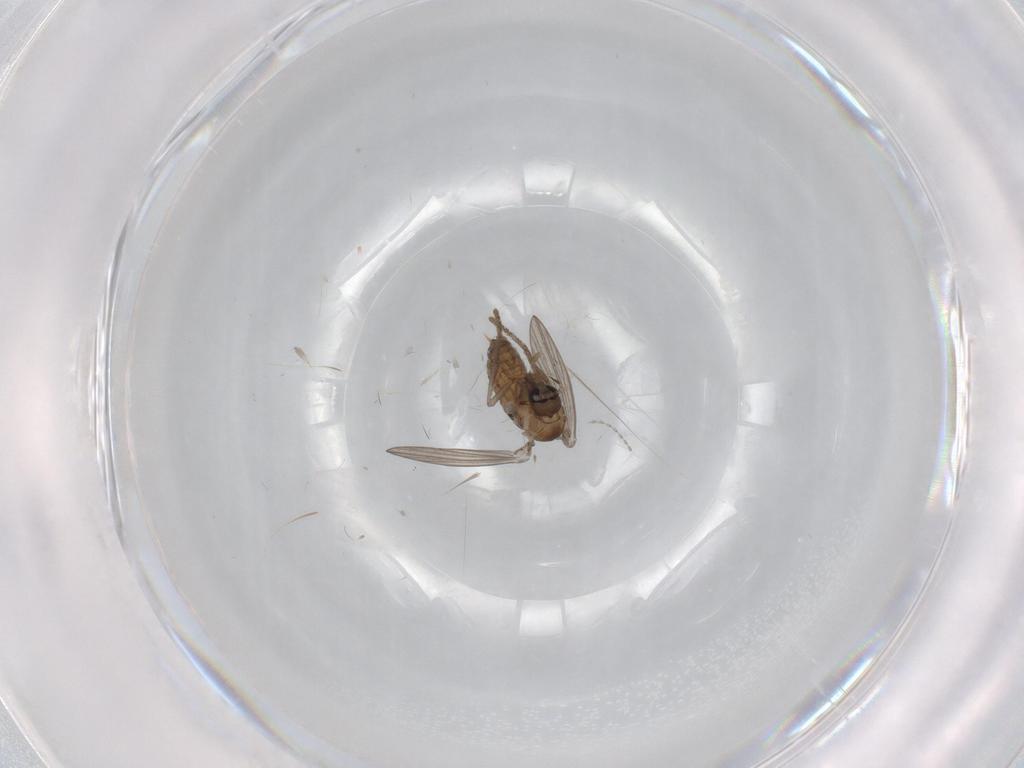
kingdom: Animalia
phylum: Arthropoda
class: Insecta
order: Diptera
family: Psychodidae
